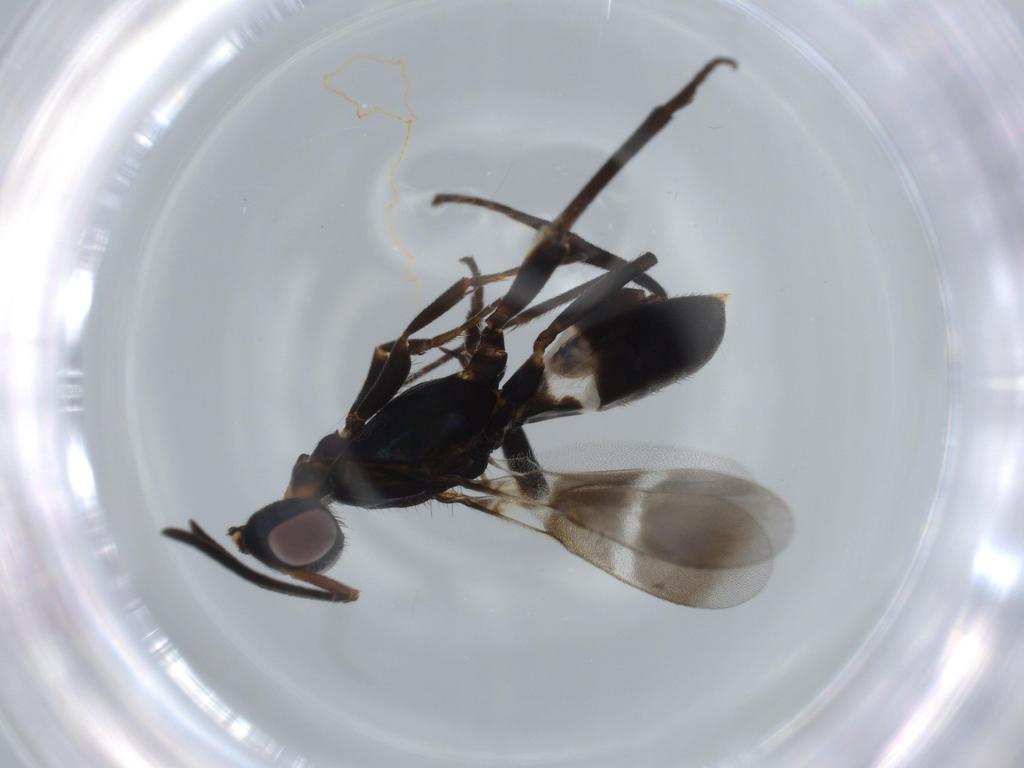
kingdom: Animalia
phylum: Arthropoda
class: Insecta
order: Hymenoptera
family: Eupelmidae
